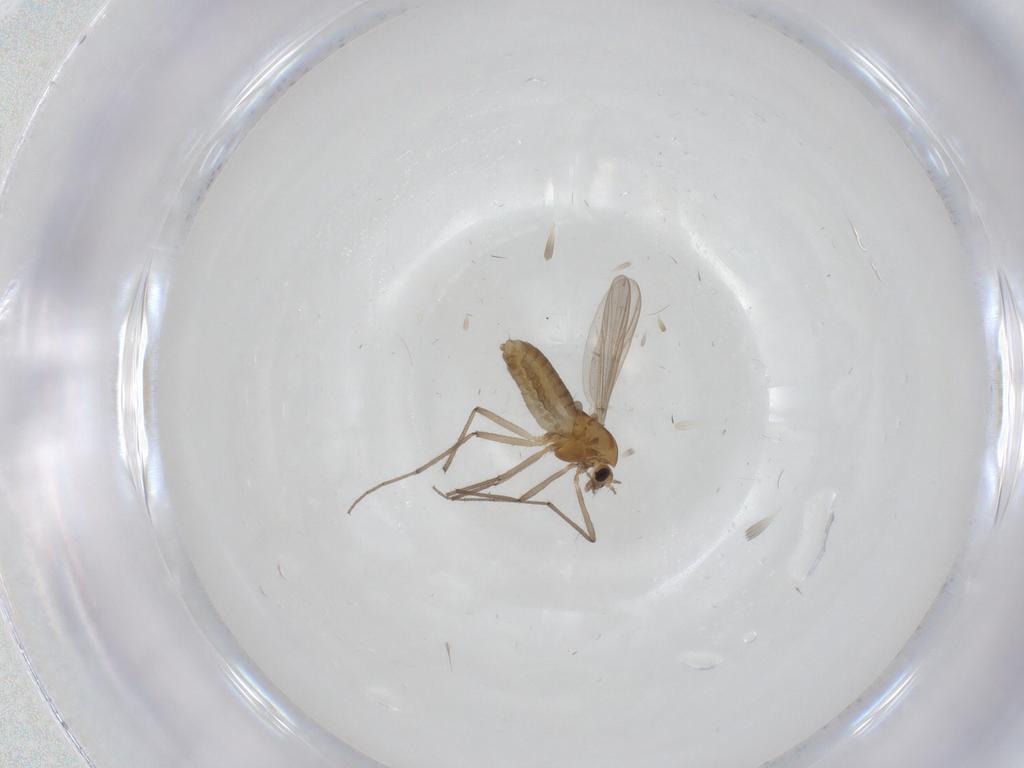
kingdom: Animalia
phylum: Arthropoda
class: Insecta
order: Diptera
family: Chironomidae
